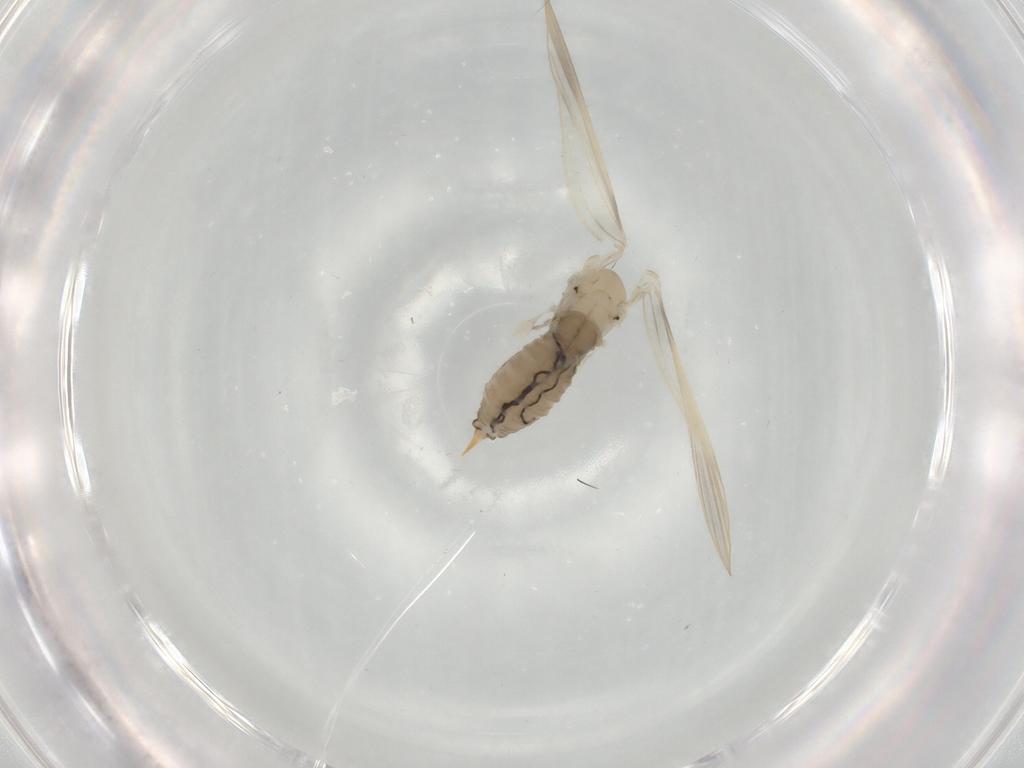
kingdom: Animalia
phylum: Arthropoda
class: Insecta
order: Diptera
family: Psychodidae
